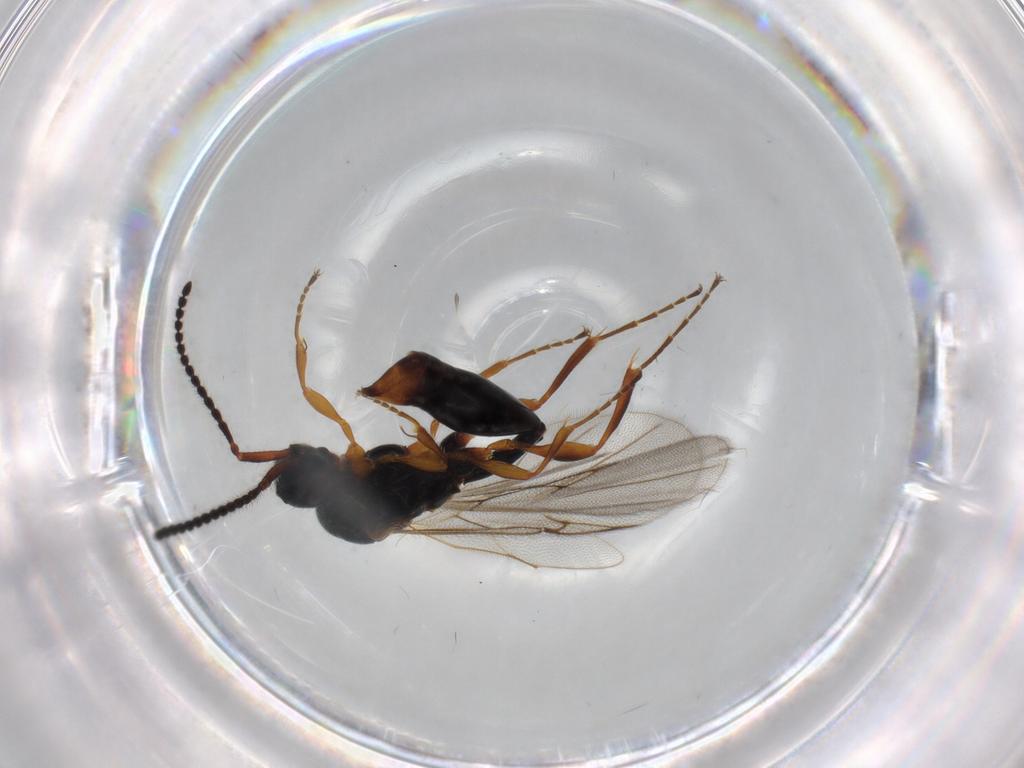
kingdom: Animalia
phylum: Arthropoda
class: Insecta
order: Hymenoptera
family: Diapriidae
